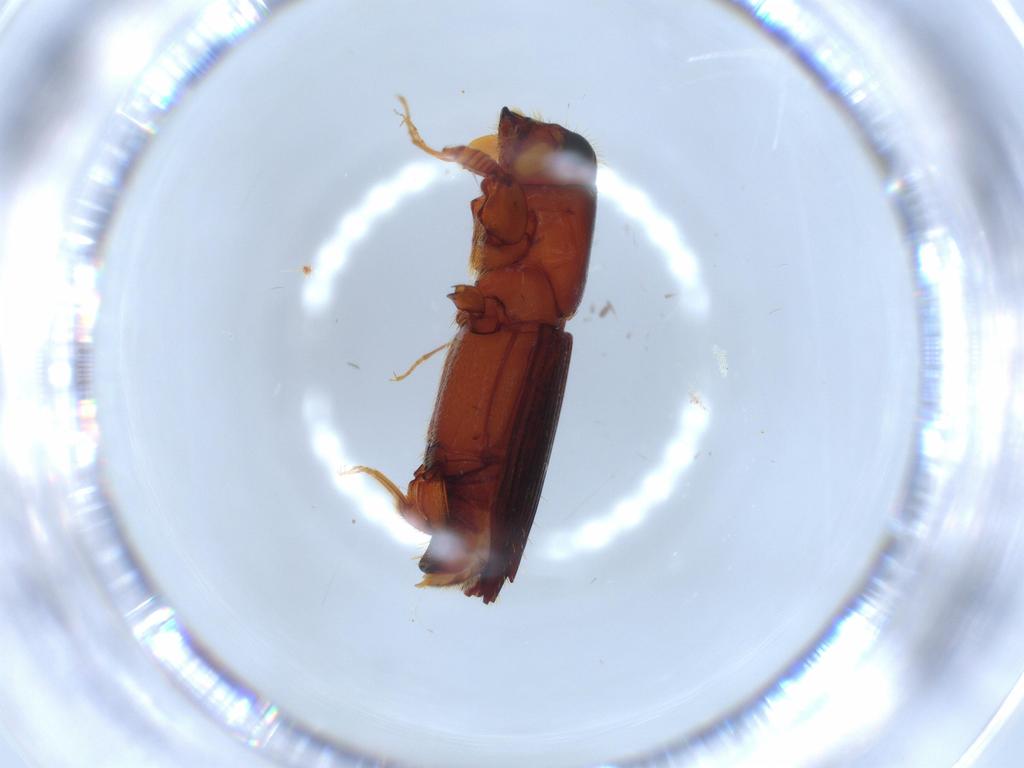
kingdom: Animalia
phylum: Arthropoda
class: Insecta
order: Coleoptera
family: Curculionidae
